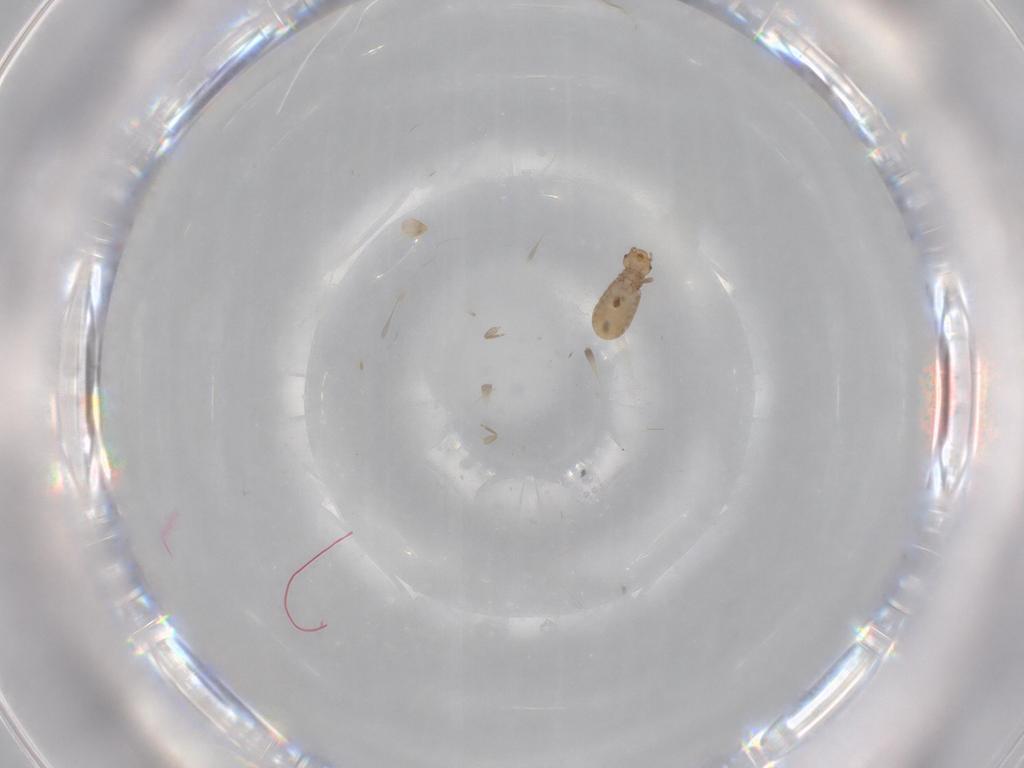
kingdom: Animalia
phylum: Arthropoda
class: Insecta
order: Psocodea
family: Liposcelididae
